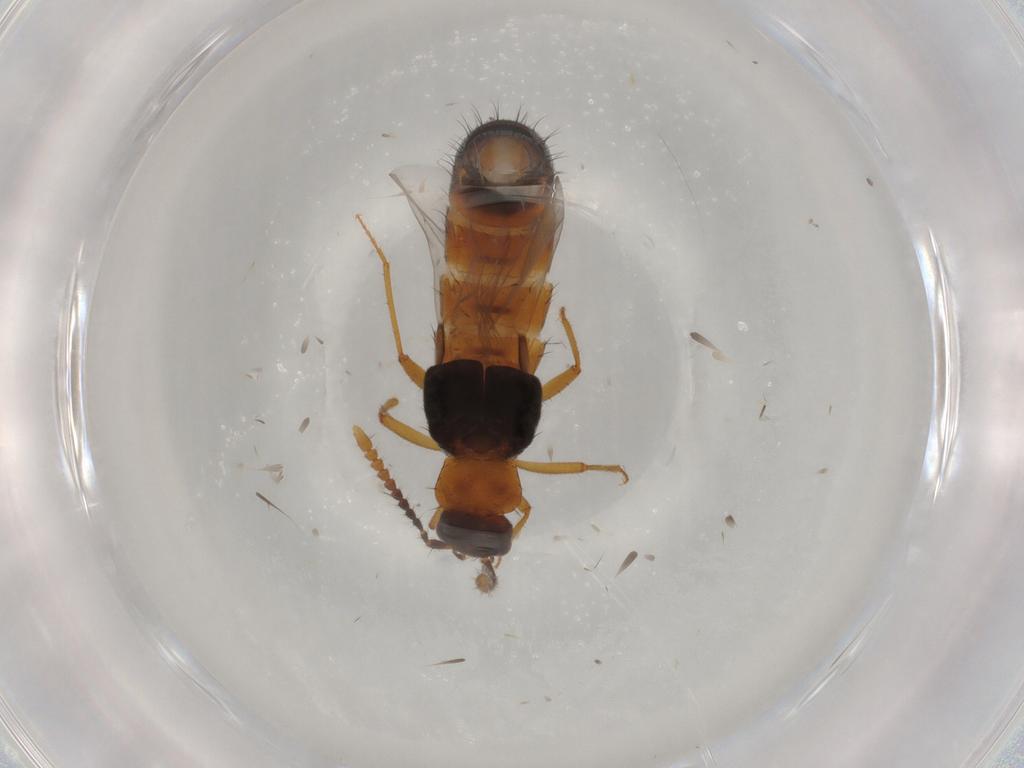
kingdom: Animalia
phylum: Arthropoda
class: Insecta
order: Coleoptera
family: Staphylinidae
